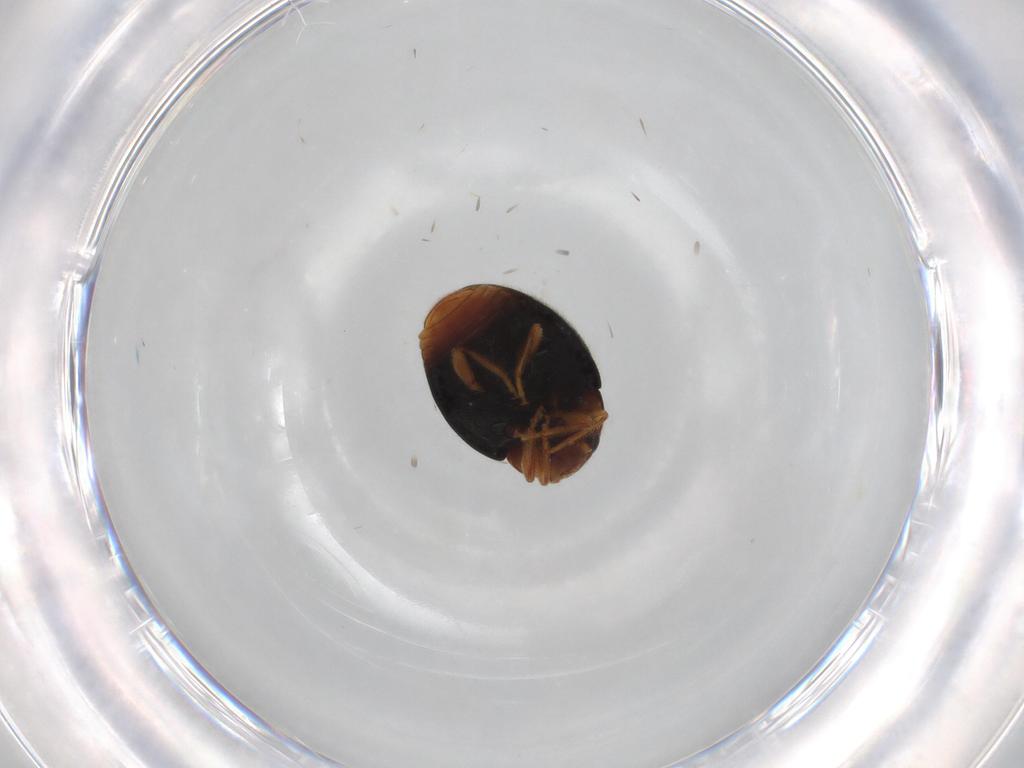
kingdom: Animalia
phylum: Arthropoda
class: Insecta
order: Coleoptera
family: Coccinellidae
